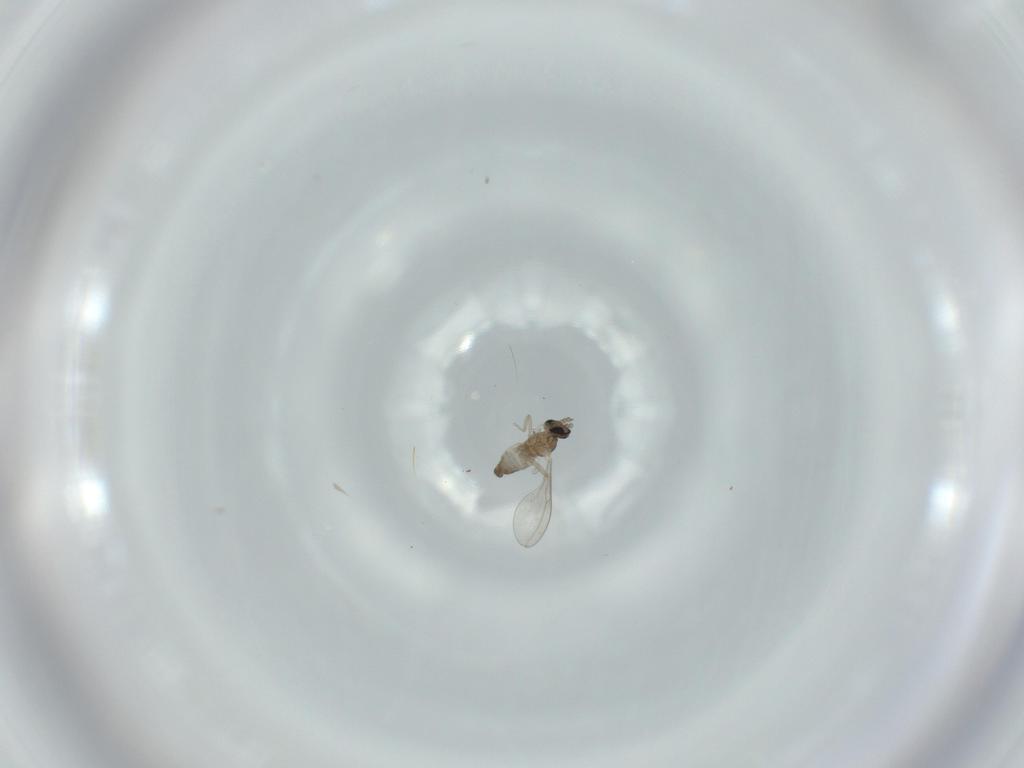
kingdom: Animalia
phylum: Arthropoda
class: Insecta
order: Diptera
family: Cecidomyiidae
